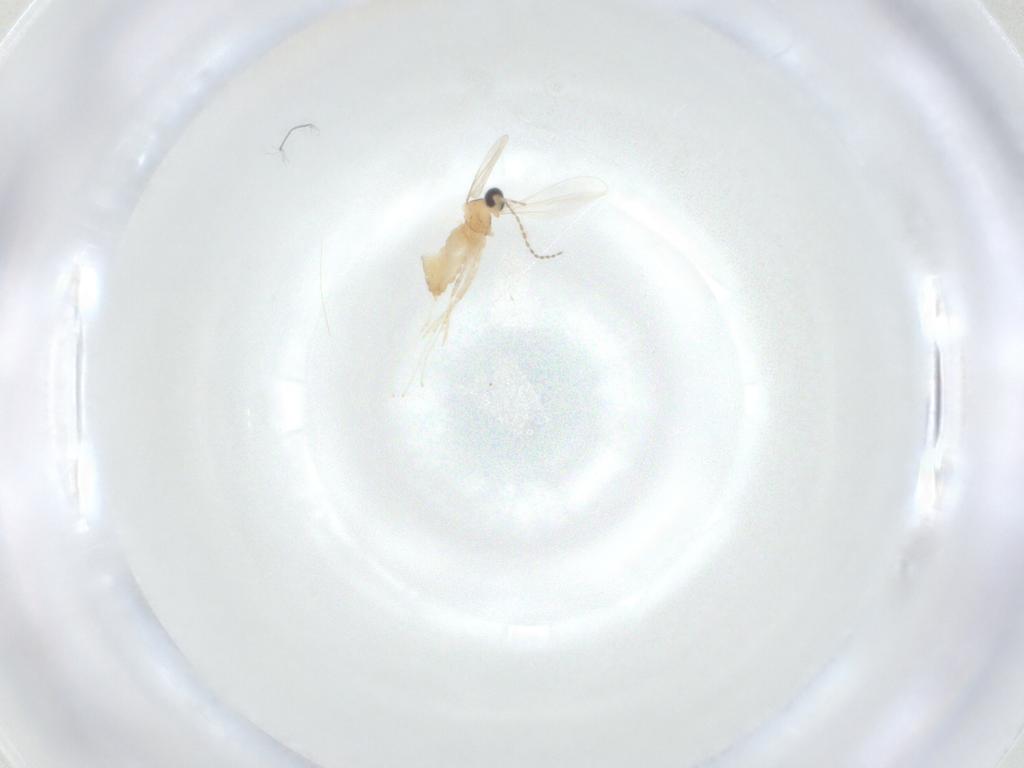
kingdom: Animalia
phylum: Arthropoda
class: Insecta
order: Diptera
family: Cecidomyiidae
